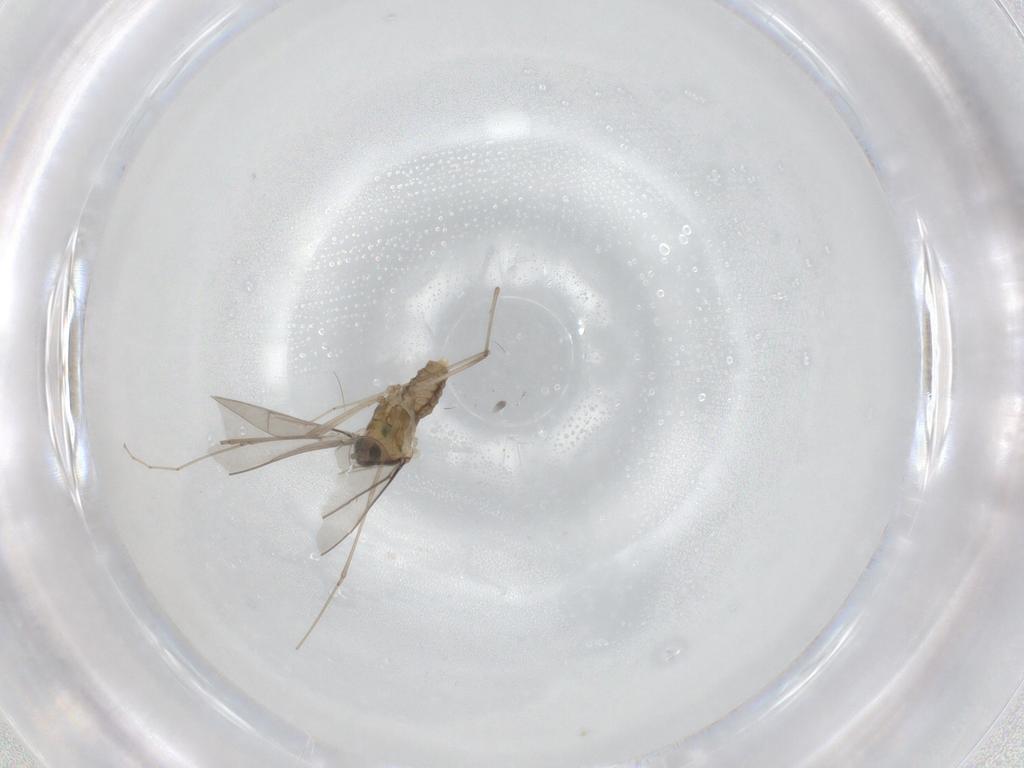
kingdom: Animalia
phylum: Arthropoda
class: Insecta
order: Diptera
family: Cecidomyiidae
